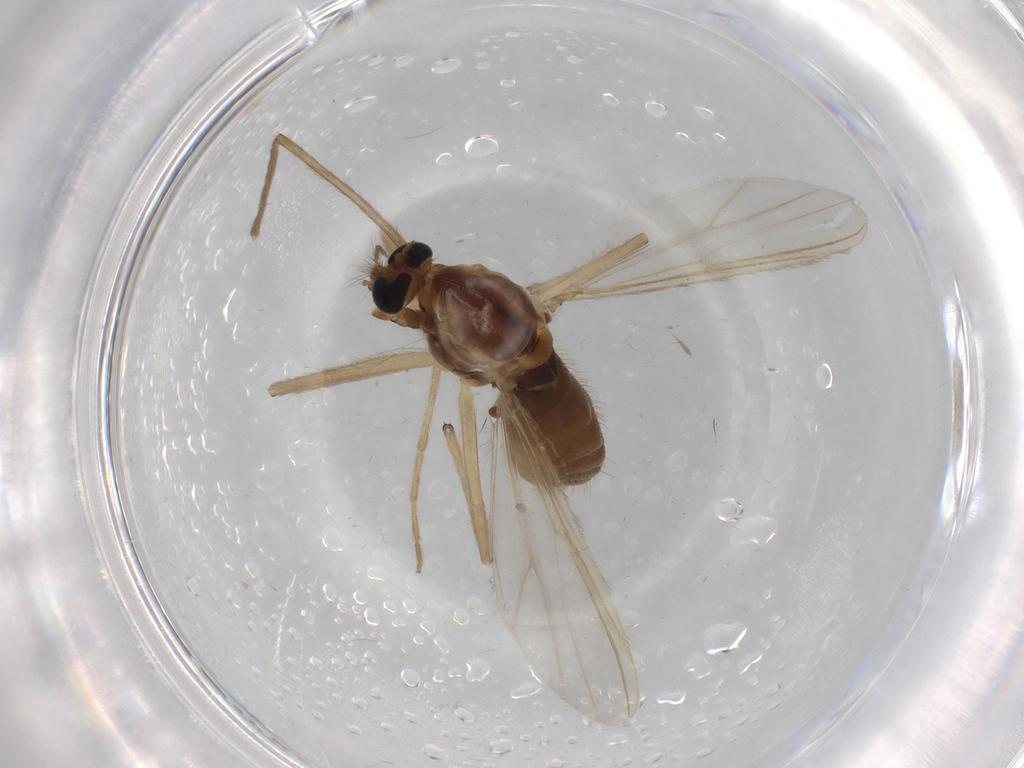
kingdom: Animalia
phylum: Arthropoda
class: Insecta
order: Diptera
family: Chironomidae
